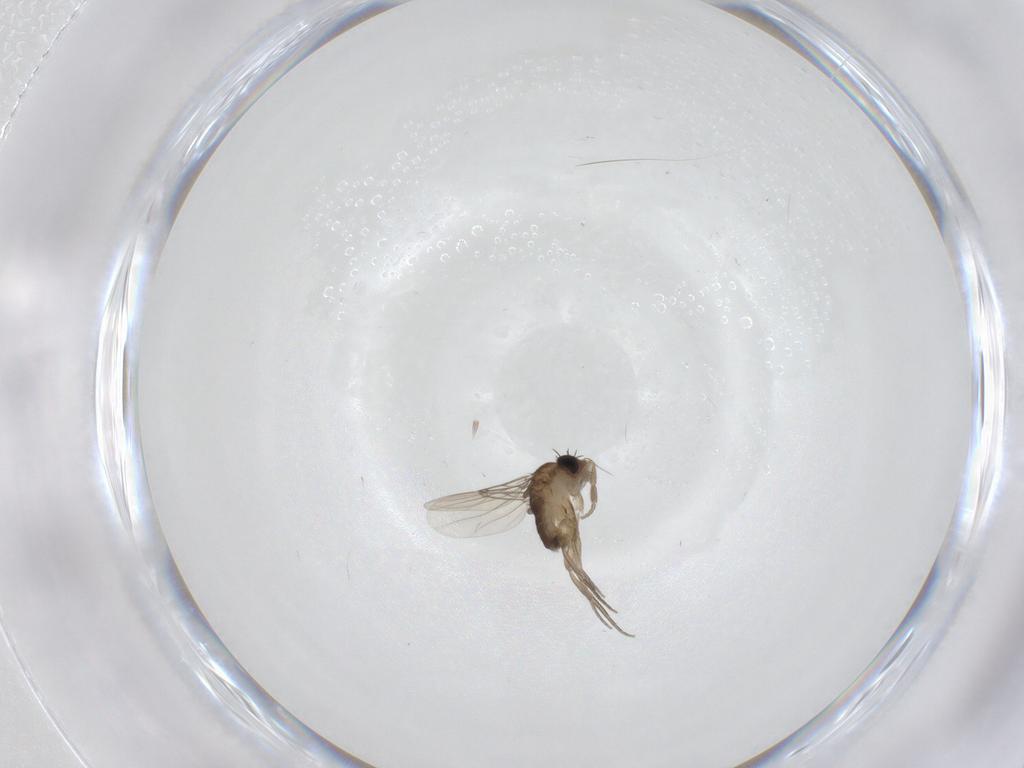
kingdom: Animalia
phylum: Arthropoda
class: Insecta
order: Diptera
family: Phoridae
